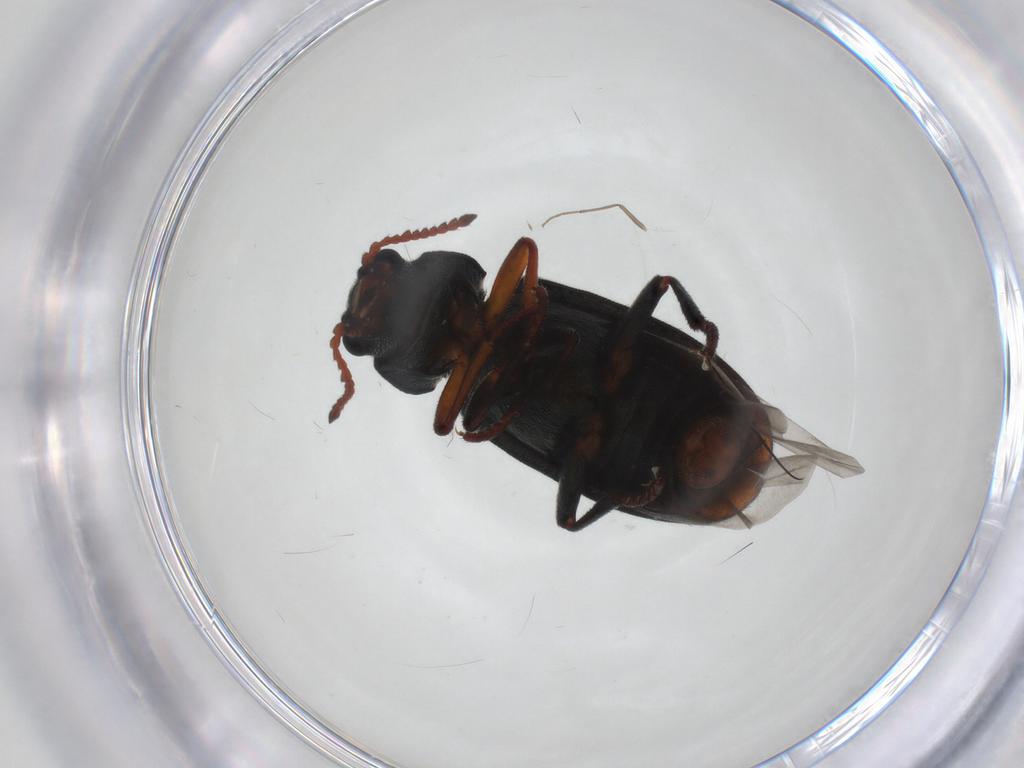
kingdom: Animalia
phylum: Arthropoda
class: Insecta
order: Coleoptera
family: Melyridae
